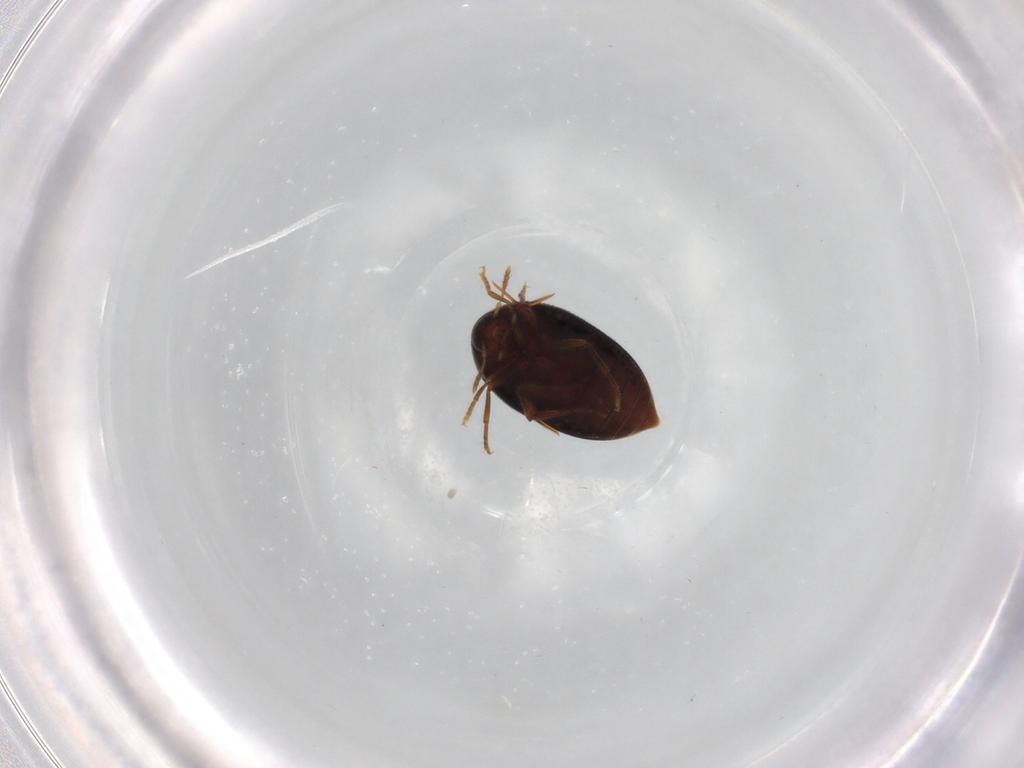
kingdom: Animalia
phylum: Arthropoda
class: Insecta
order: Coleoptera
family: Melandryidae
